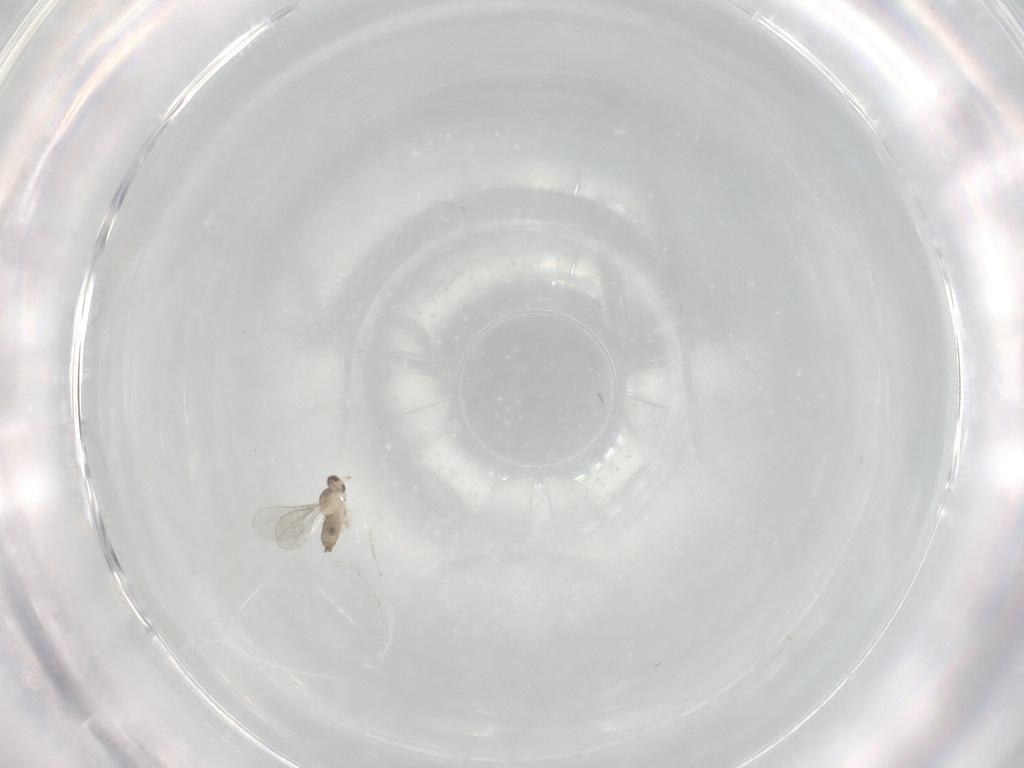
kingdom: Animalia
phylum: Arthropoda
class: Insecta
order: Diptera
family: Cecidomyiidae
